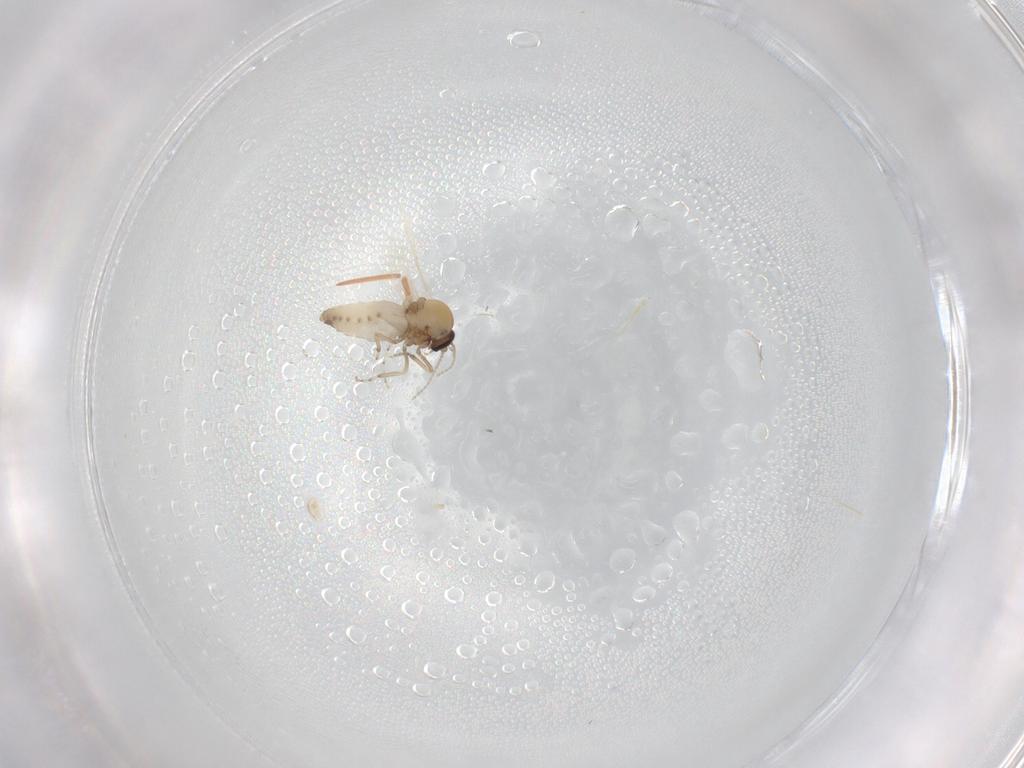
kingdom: Animalia
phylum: Arthropoda
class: Insecta
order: Diptera
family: Ceratopogonidae
